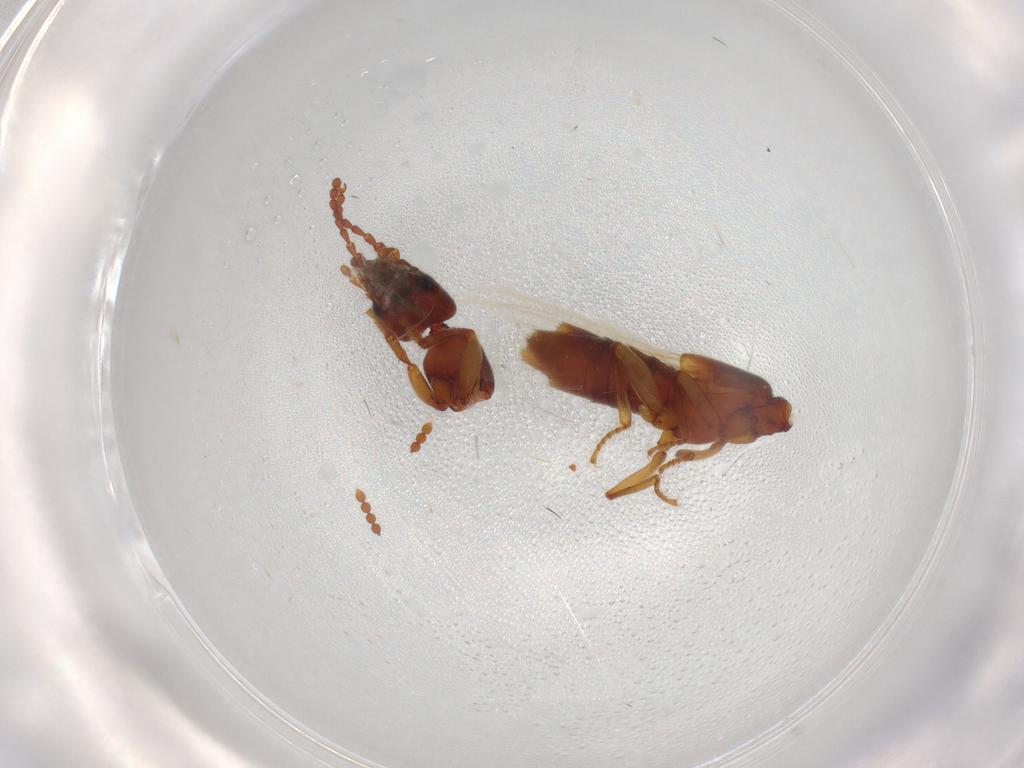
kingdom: Animalia
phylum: Arthropoda
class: Insecta
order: Coleoptera
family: Staphylinidae
